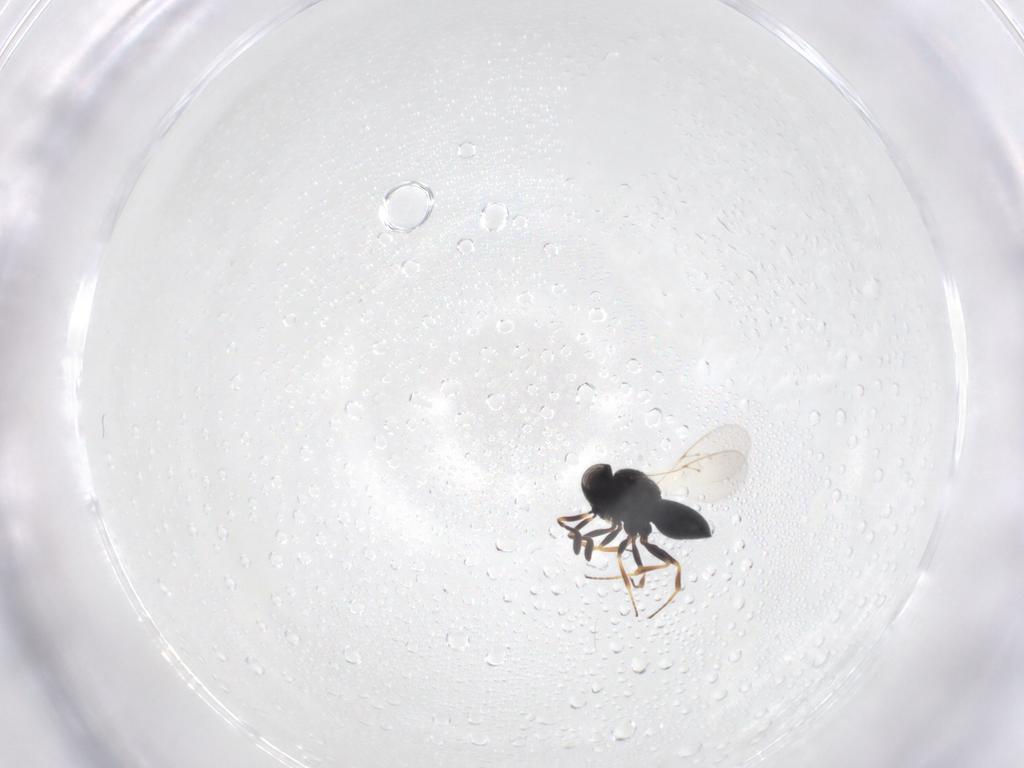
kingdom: Animalia
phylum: Arthropoda
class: Insecta
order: Hymenoptera
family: Scelionidae
